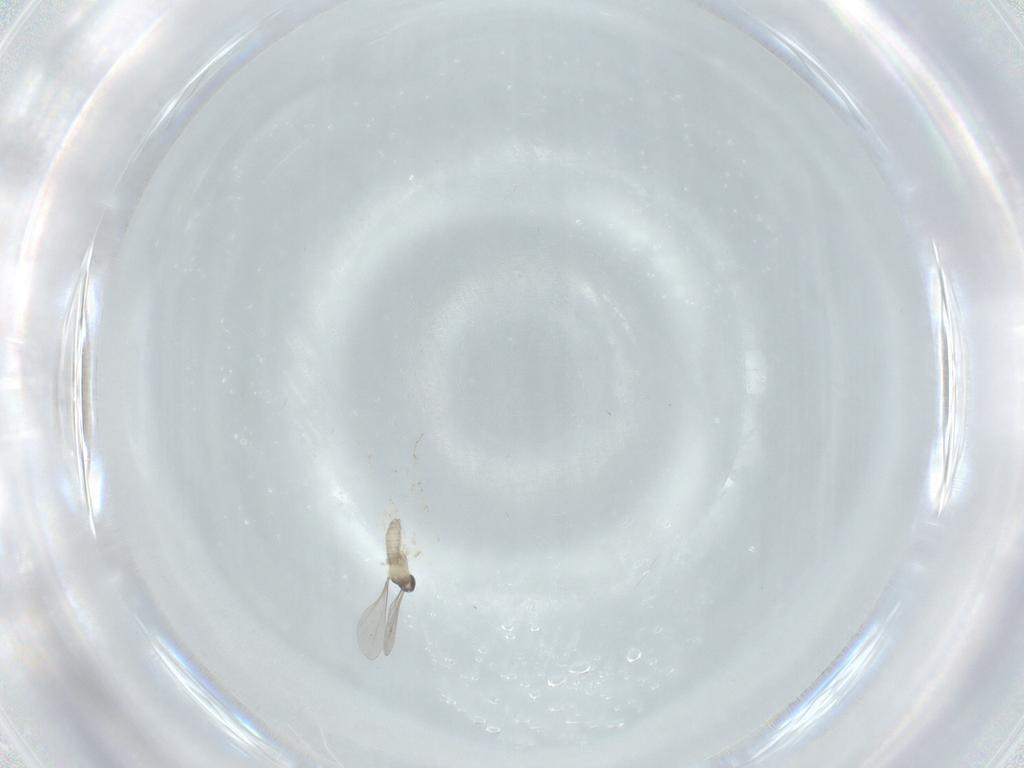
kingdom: Animalia
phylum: Arthropoda
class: Insecta
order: Diptera
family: Cecidomyiidae
